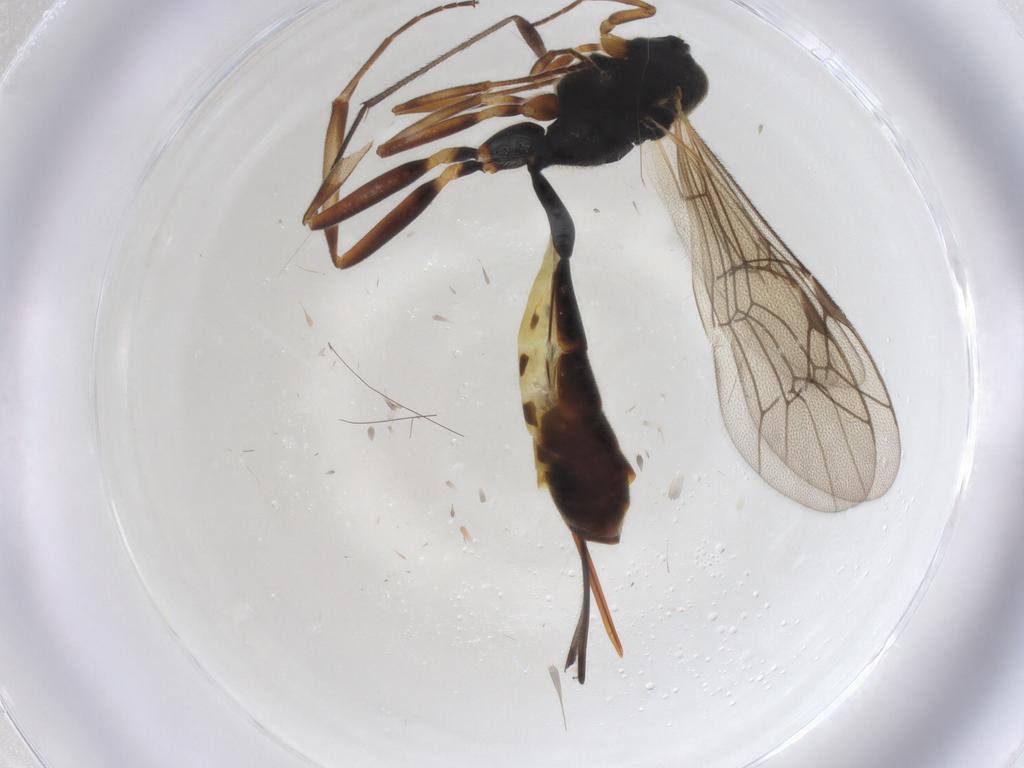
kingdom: Animalia
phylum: Arthropoda
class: Insecta
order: Hymenoptera
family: Ichneumonidae
